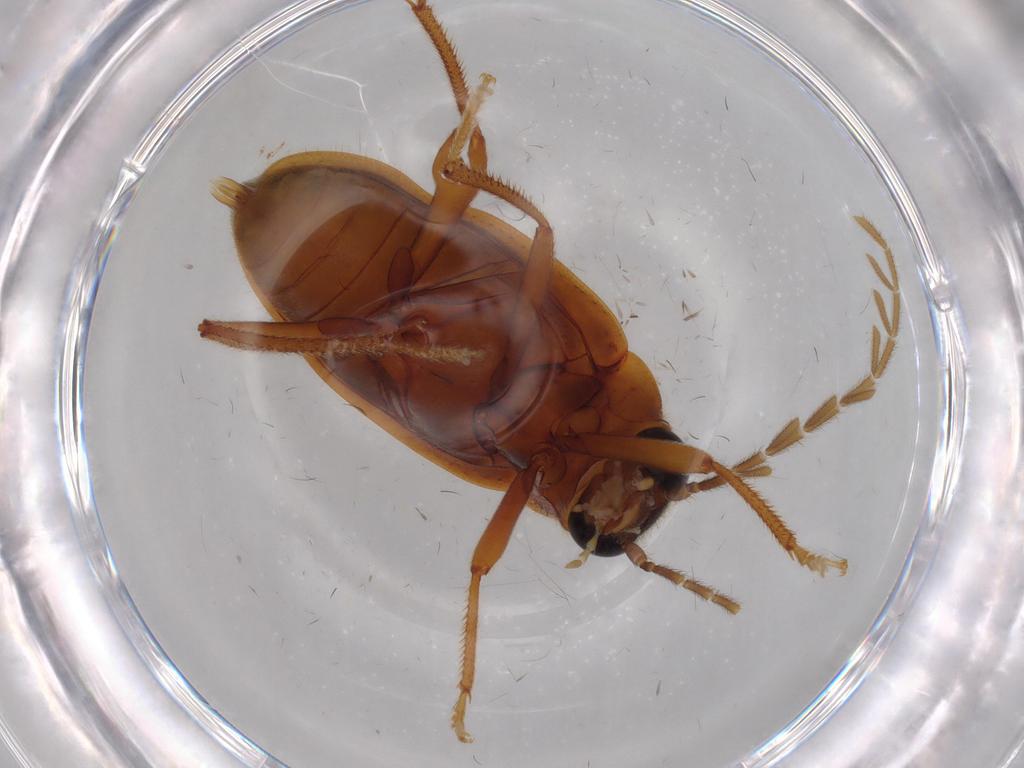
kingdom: Animalia
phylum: Arthropoda
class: Insecta
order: Coleoptera
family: Ptilodactylidae
